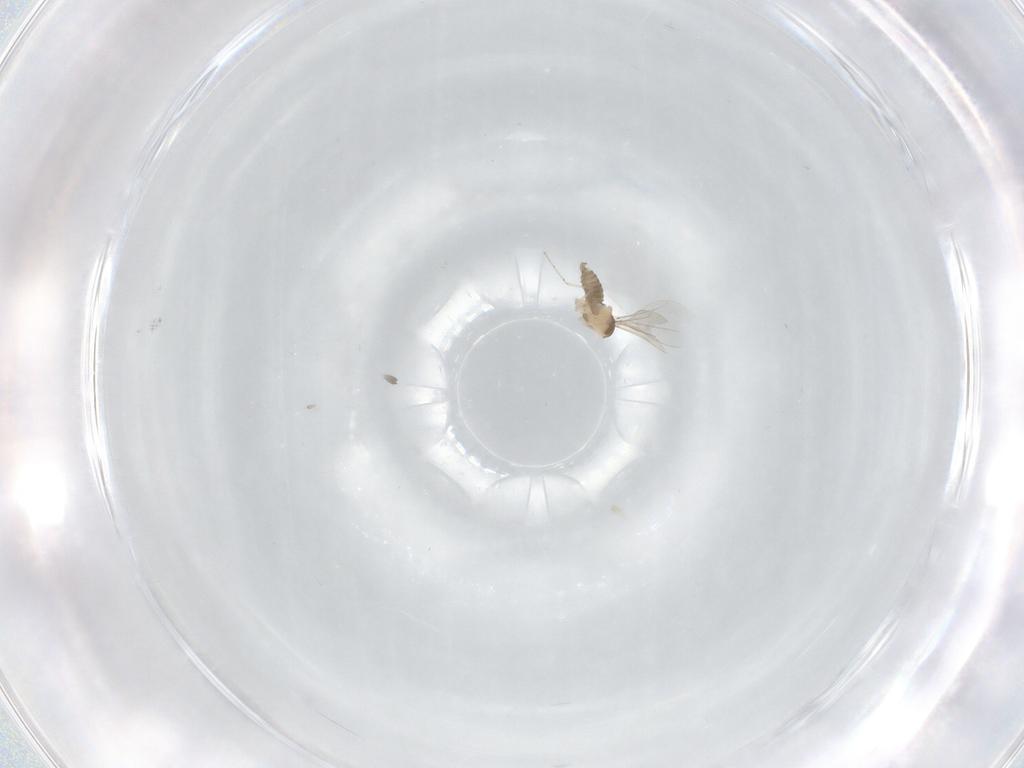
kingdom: Animalia
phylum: Arthropoda
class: Insecta
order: Diptera
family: Cecidomyiidae
